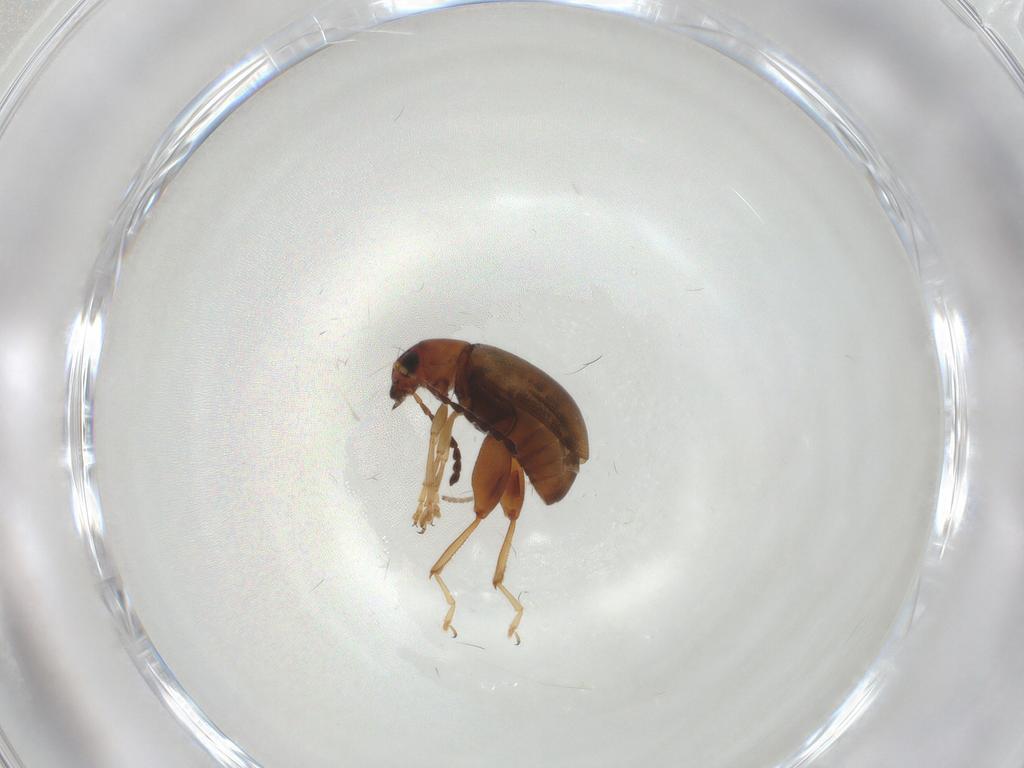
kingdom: Animalia
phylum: Arthropoda
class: Insecta
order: Coleoptera
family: Chrysomelidae
